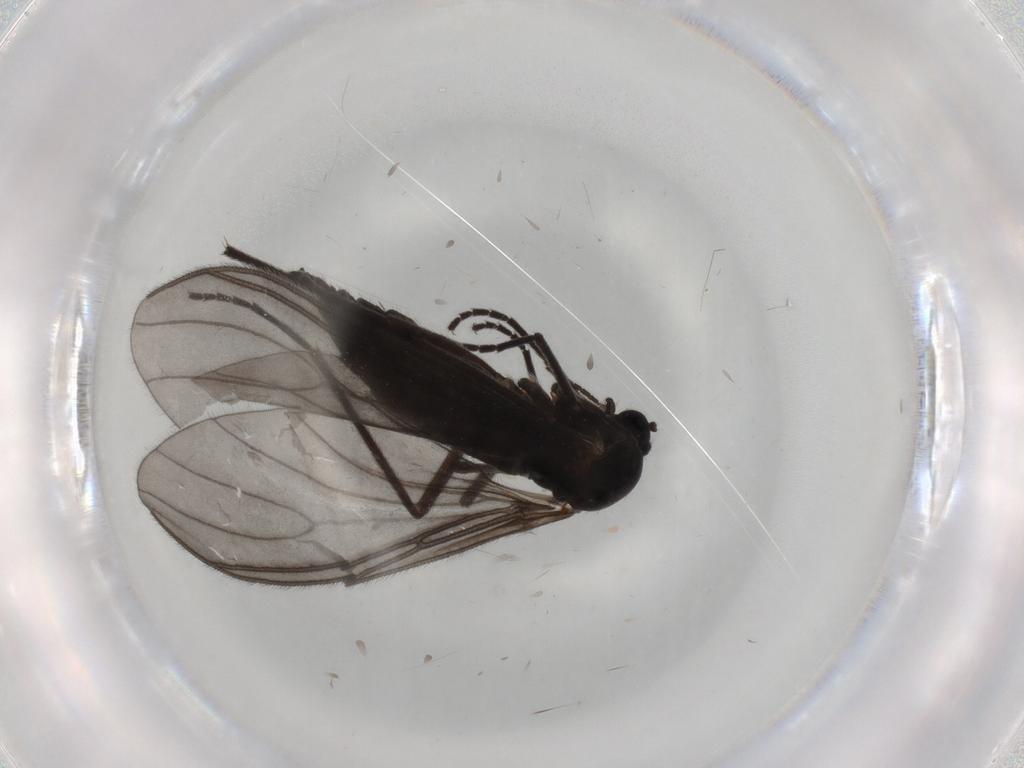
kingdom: Animalia
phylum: Arthropoda
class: Insecta
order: Diptera
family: Sciaridae
